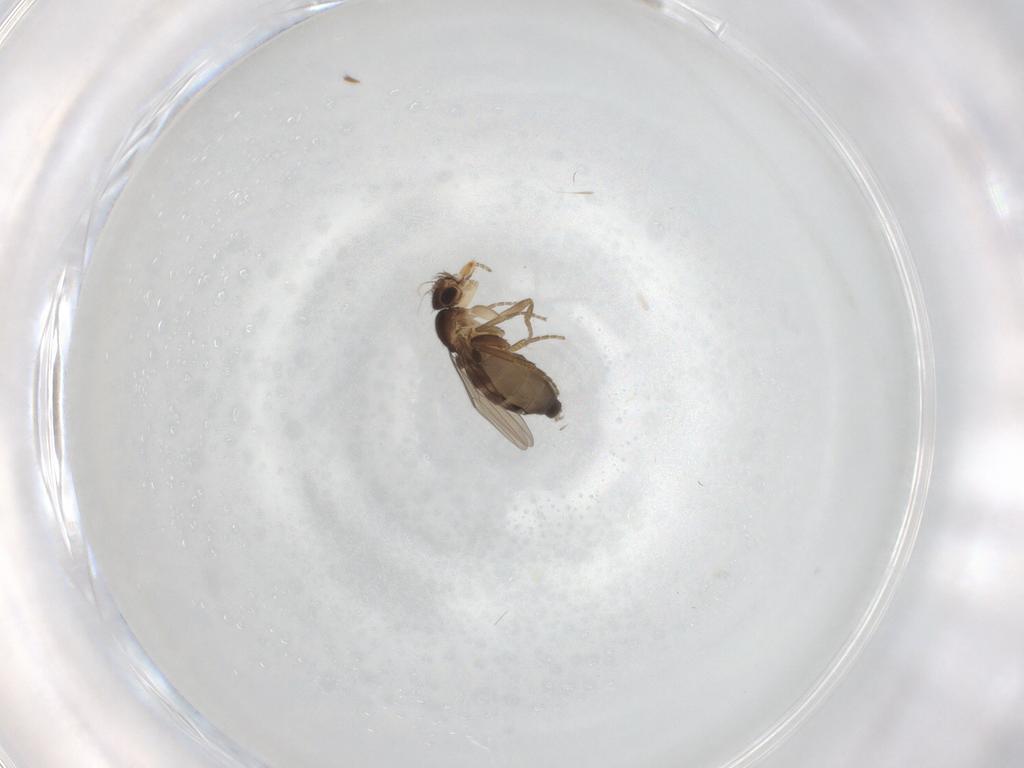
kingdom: Animalia
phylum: Arthropoda
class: Insecta
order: Diptera
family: Phoridae
